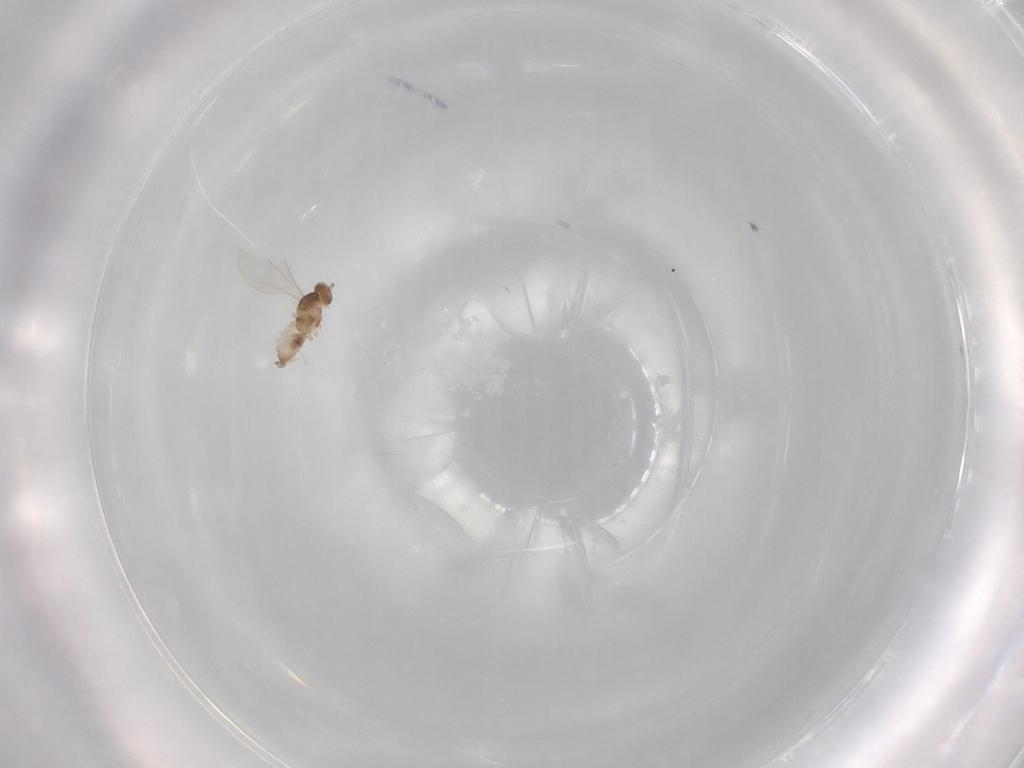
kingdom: Animalia
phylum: Arthropoda
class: Insecta
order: Diptera
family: Cecidomyiidae
